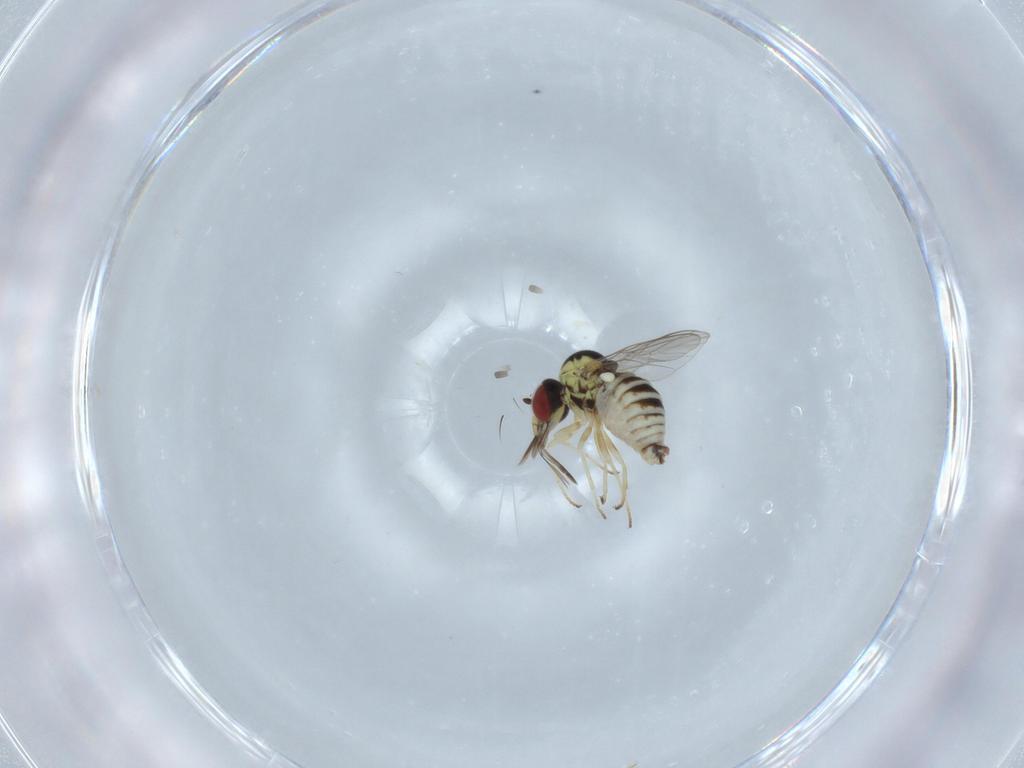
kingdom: Animalia
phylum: Arthropoda
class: Insecta
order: Diptera
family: Bombyliidae
